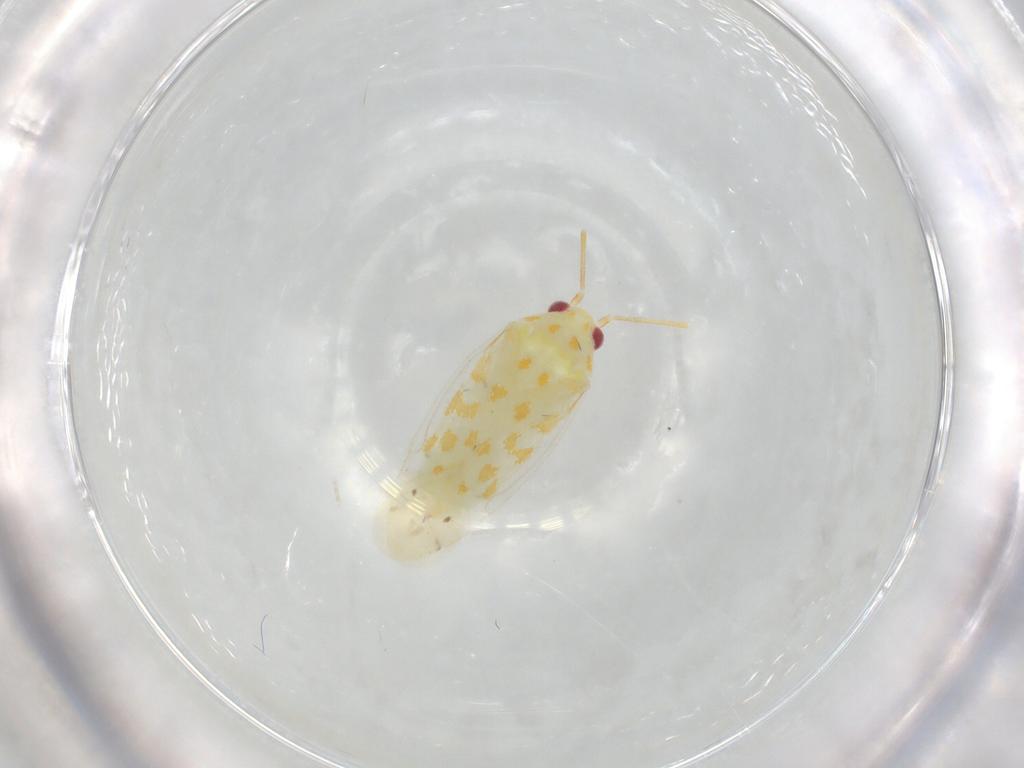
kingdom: Animalia
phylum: Arthropoda
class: Insecta
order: Hemiptera
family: Miridae
